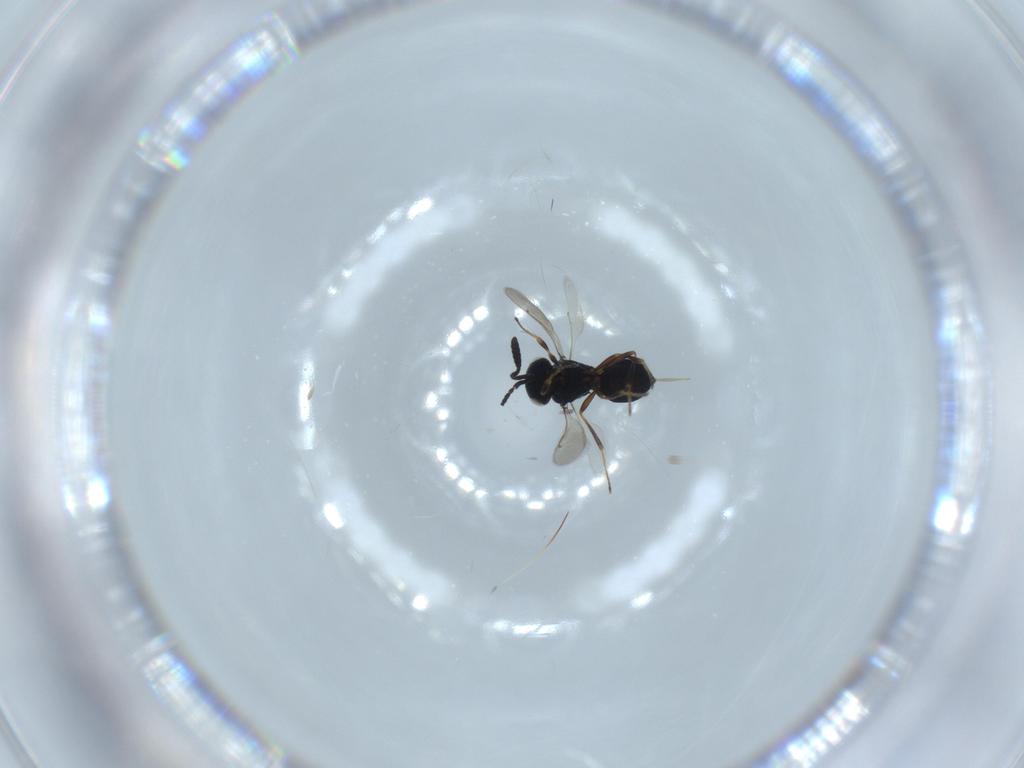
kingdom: Animalia
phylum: Arthropoda
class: Insecta
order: Hymenoptera
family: Scelionidae
